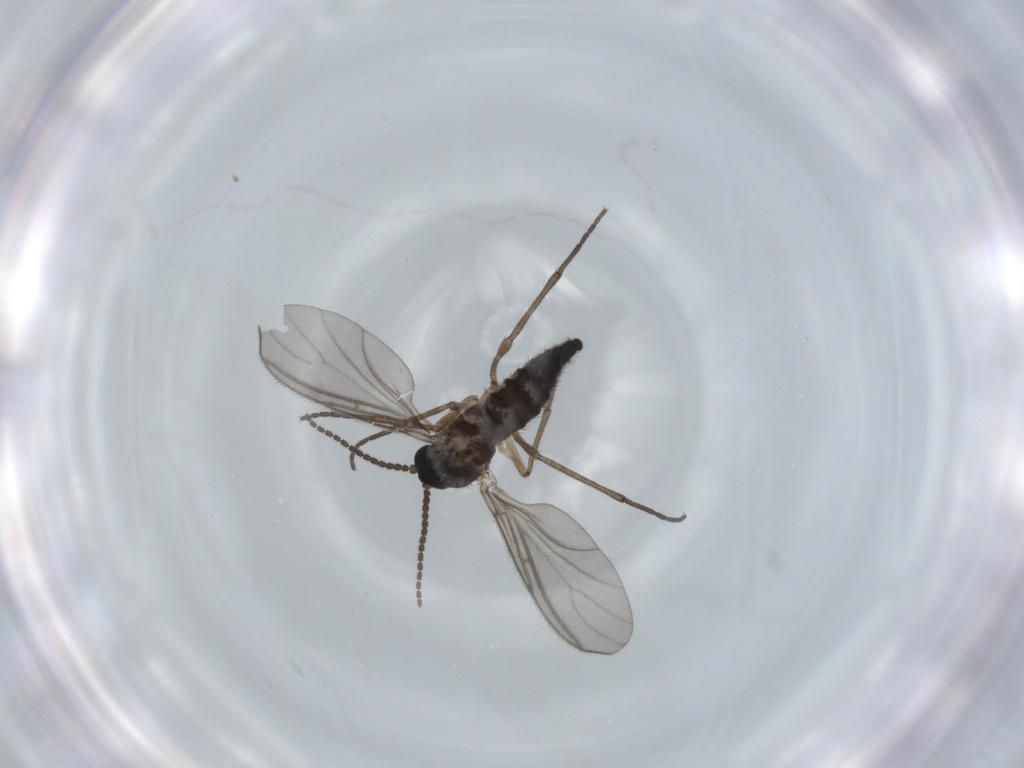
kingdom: Animalia
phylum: Arthropoda
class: Insecta
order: Diptera
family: Sciaridae
